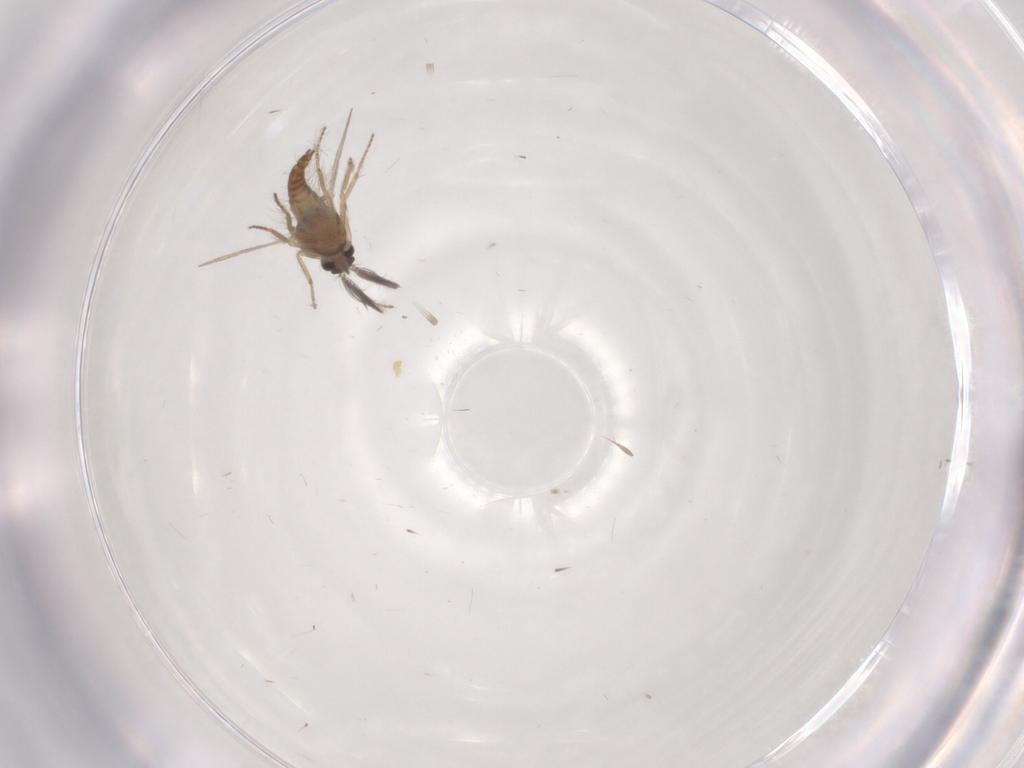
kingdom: Animalia
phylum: Arthropoda
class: Insecta
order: Diptera
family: Ceratopogonidae
